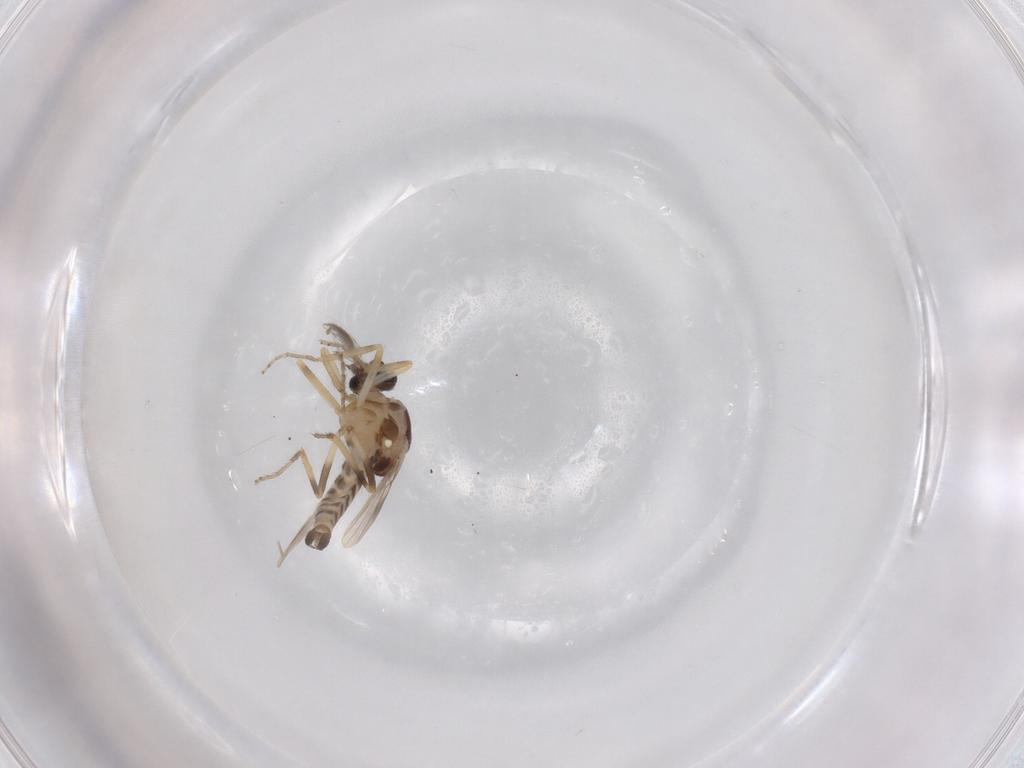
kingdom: Animalia
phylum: Arthropoda
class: Insecta
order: Diptera
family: Ceratopogonidae
